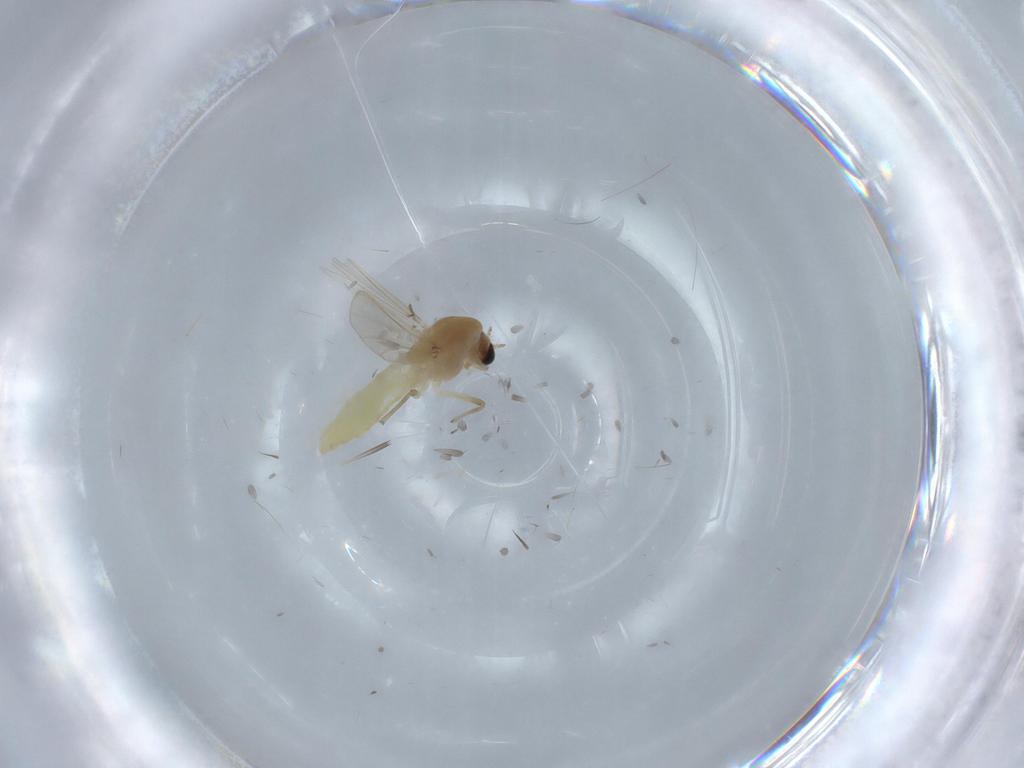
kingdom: Animalia
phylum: Arthropoda
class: Insecta
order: Diptera
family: Chironomidae
